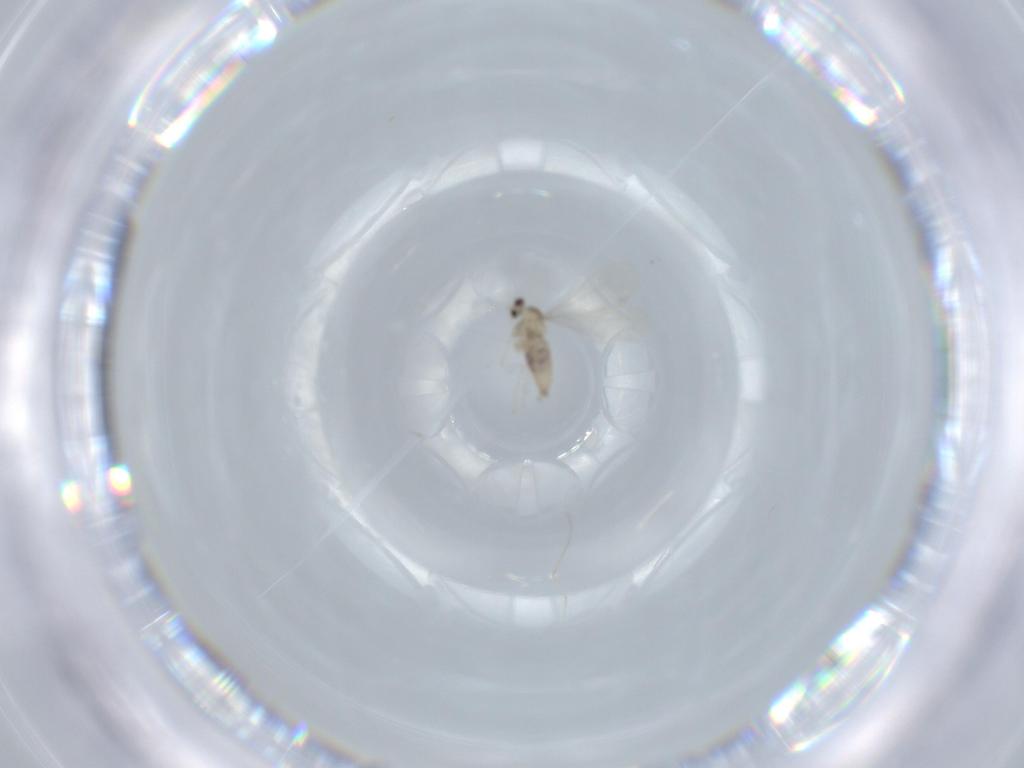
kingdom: Animalia
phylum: Arthropoda
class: Insecta
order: Diptera
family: Cecidomyiidae
